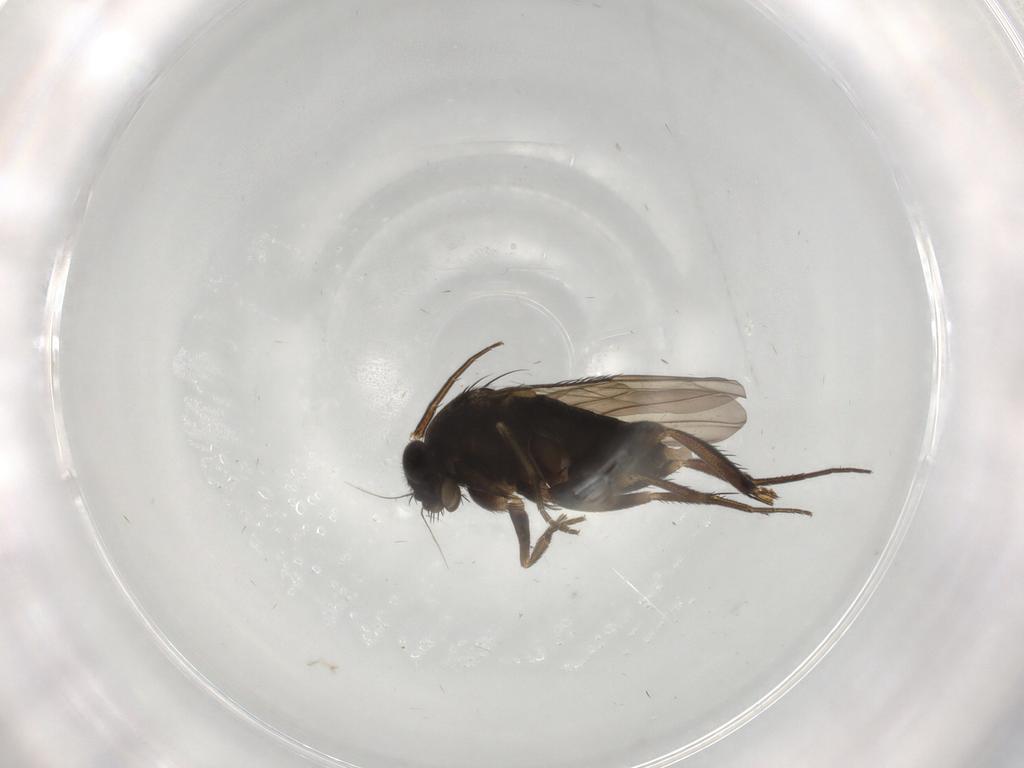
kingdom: Animalia
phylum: Arthropoda
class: Insecta
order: Diptera
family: Phoridae
